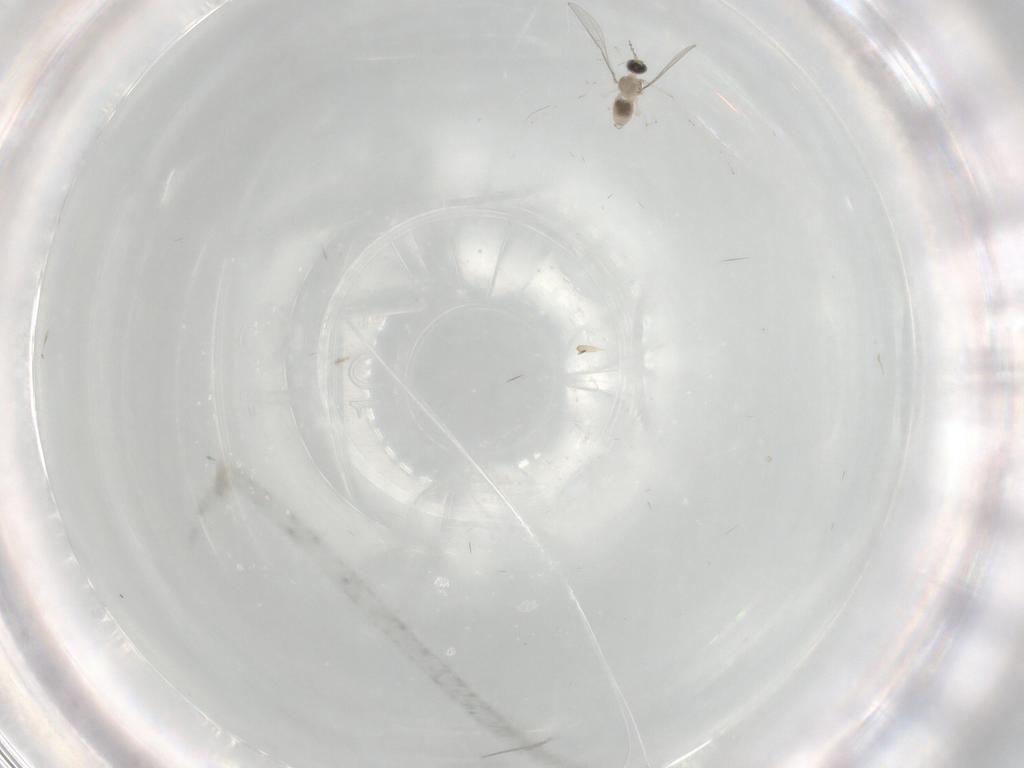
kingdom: Animalia
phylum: Arthropoda
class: Insecta
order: Diptera
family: Cecidomyiidae
